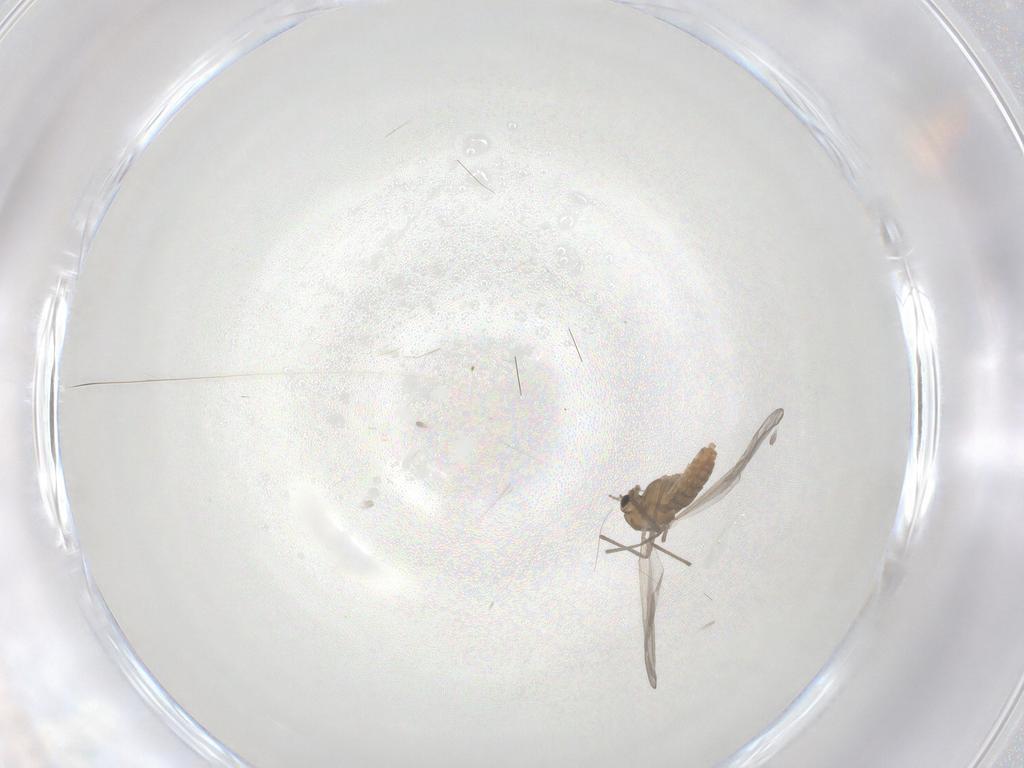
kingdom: Animalia
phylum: Arthropoda
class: Insecta
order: Diptera
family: Chironomidae
